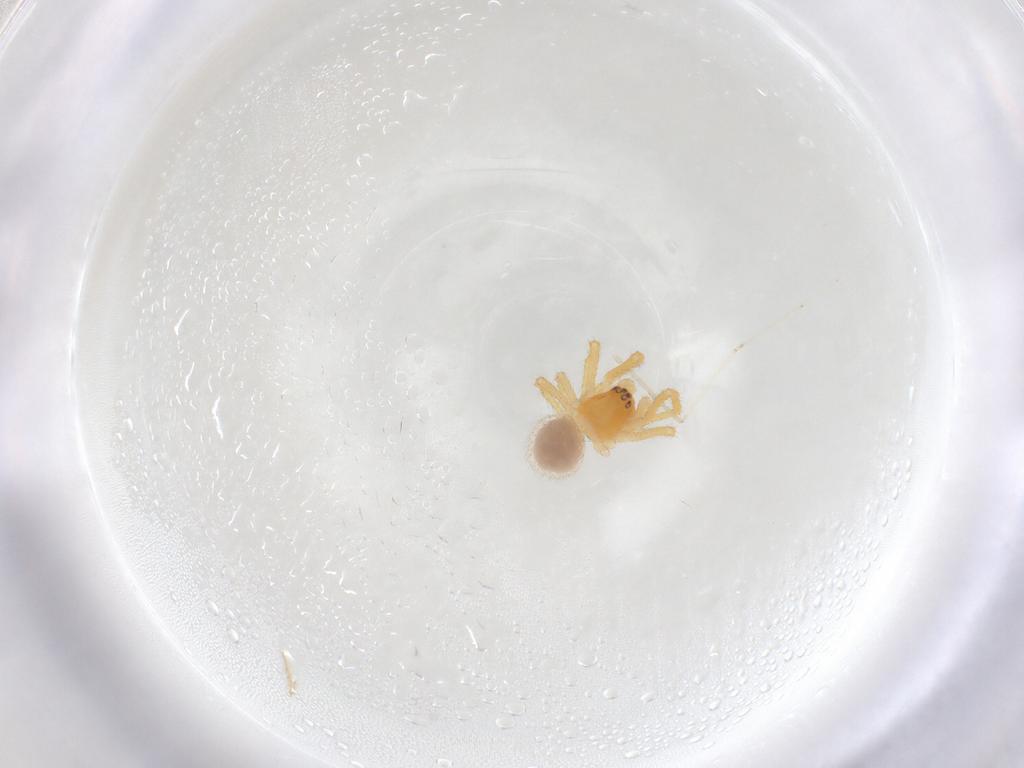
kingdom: Animalia
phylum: Arthropoda
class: Arachnida
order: Araneae
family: Theridiidae
